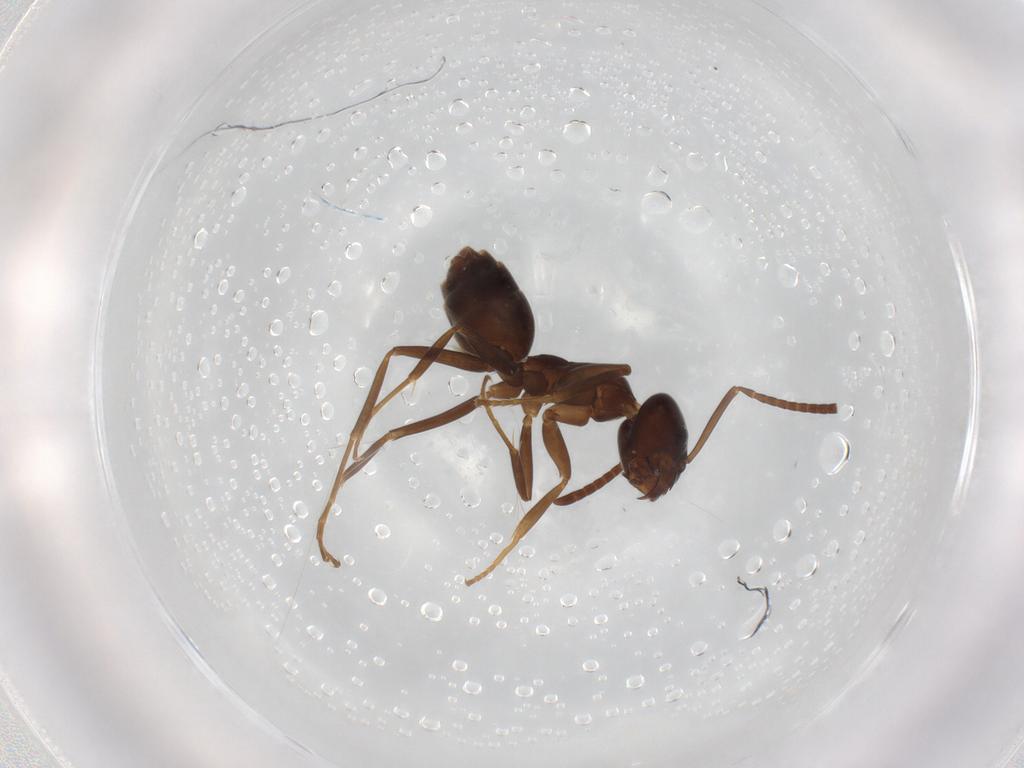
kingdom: Animalia
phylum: Arthropoda
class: Insecta
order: Hymenoptera
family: Formicidae
